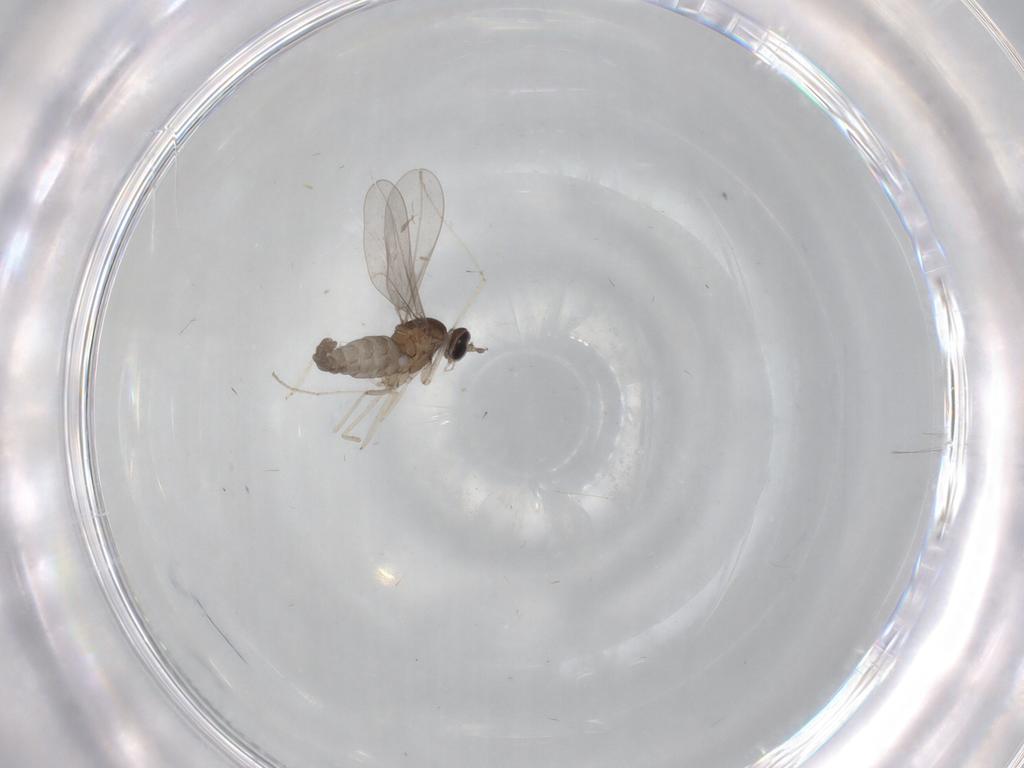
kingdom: Animalia
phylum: Arthropoda
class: Insecta
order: Diptera
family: Cecidomyiidae
